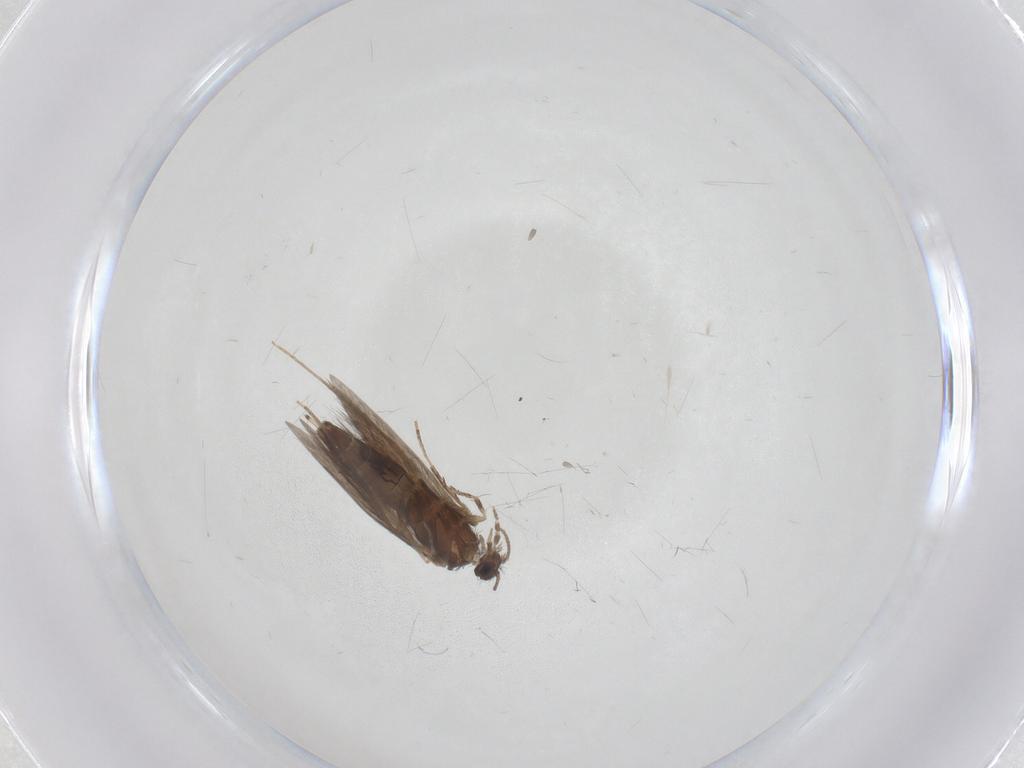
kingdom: Animalia
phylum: Arthropoda
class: Insecta
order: Trichoptera
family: Hydroptilidae
